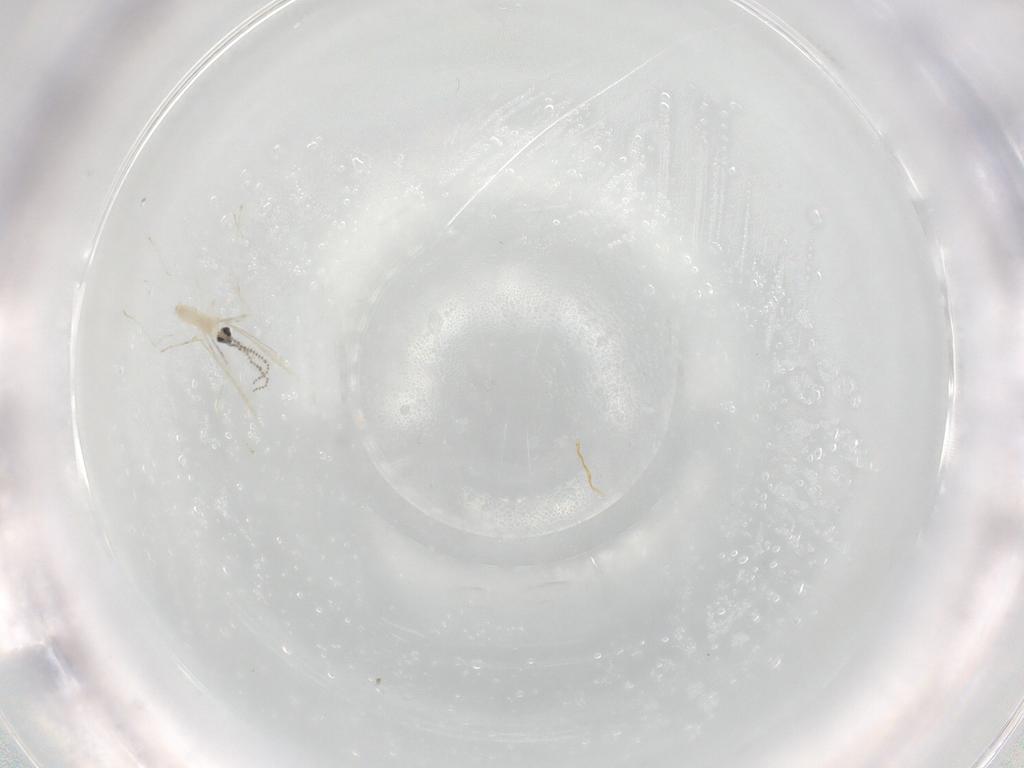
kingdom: Animalia
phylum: Arthropoda
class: Insecta
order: Diptera
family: Cecidomyiidae
